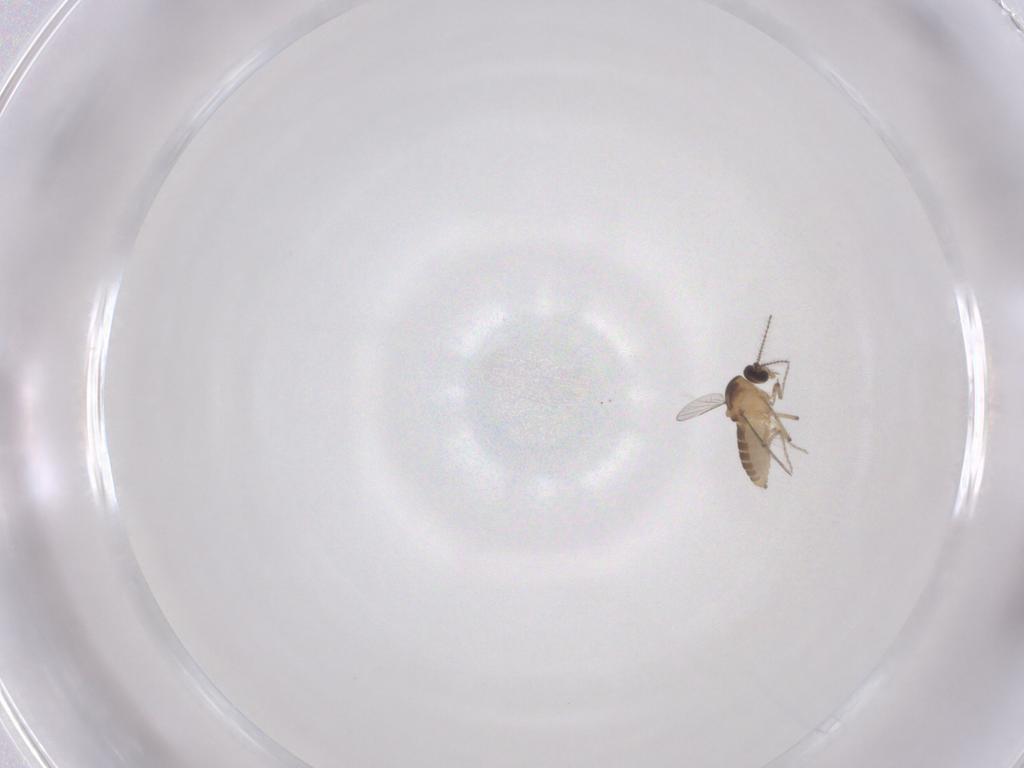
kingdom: Animalia
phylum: Arthropoda
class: Insecta
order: Diptera
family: Ceratopogonidae
